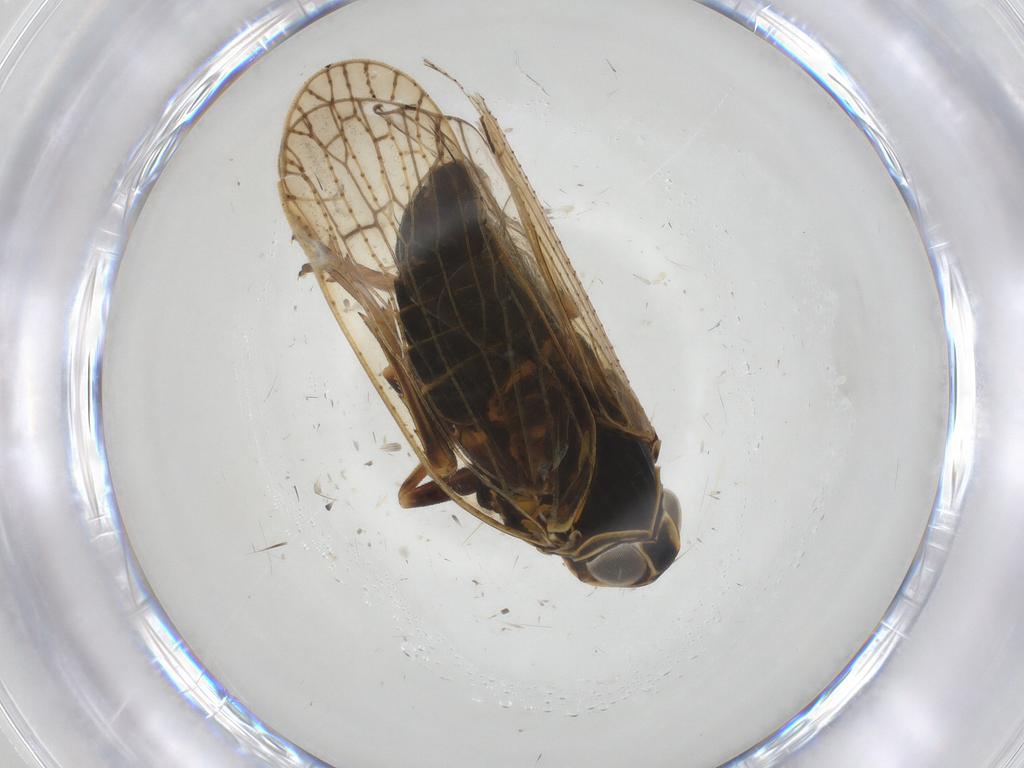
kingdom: Animalia
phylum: Arthropoda
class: Insecta
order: Hemiptera
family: Cixiidae
